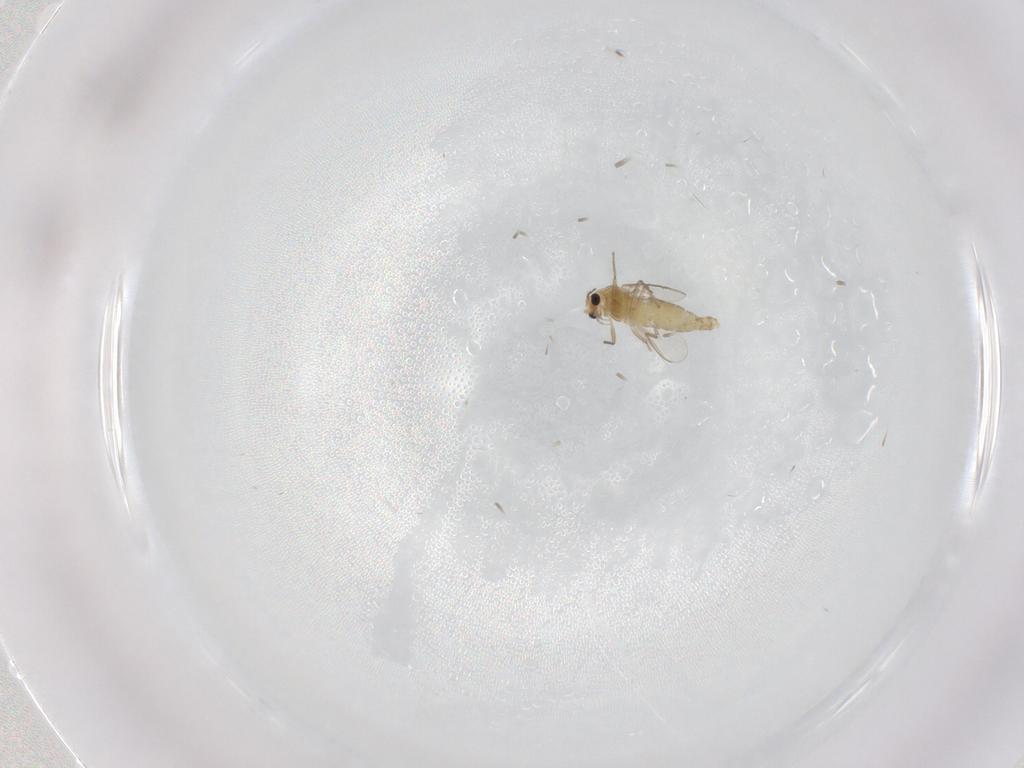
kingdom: Animalia
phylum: Arthropoda
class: Insecta
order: Diptera
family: Chironomidae
